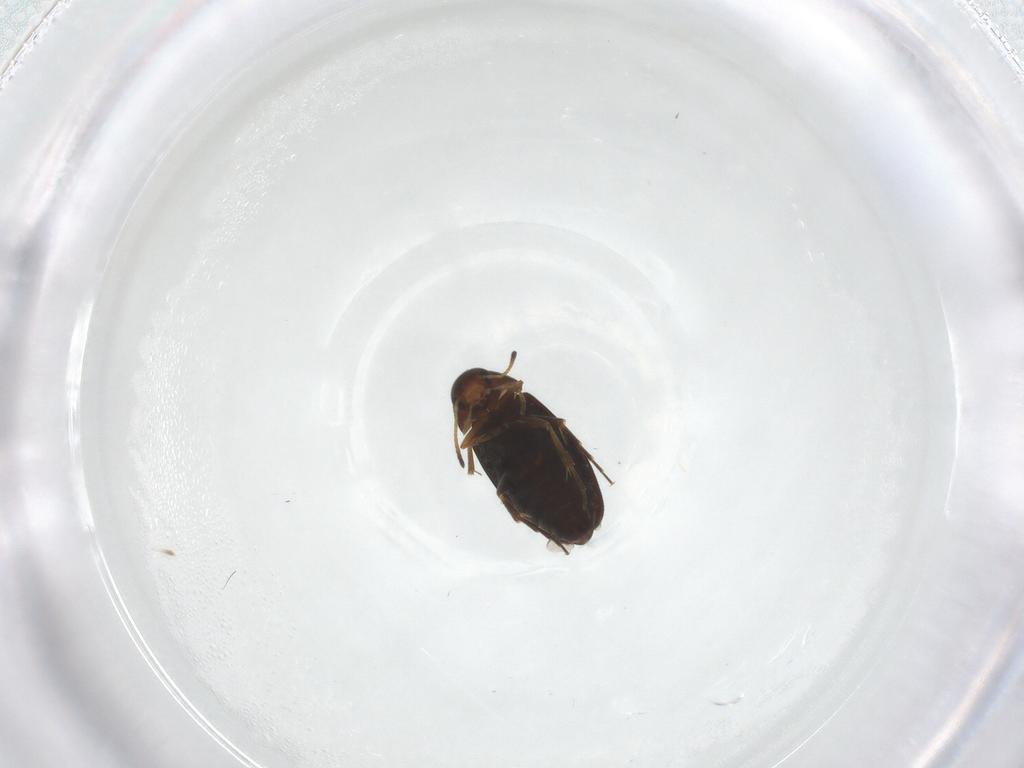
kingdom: Animalia
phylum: Arthropoda
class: Insecta
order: Coleoptera
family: Scraptiidae
